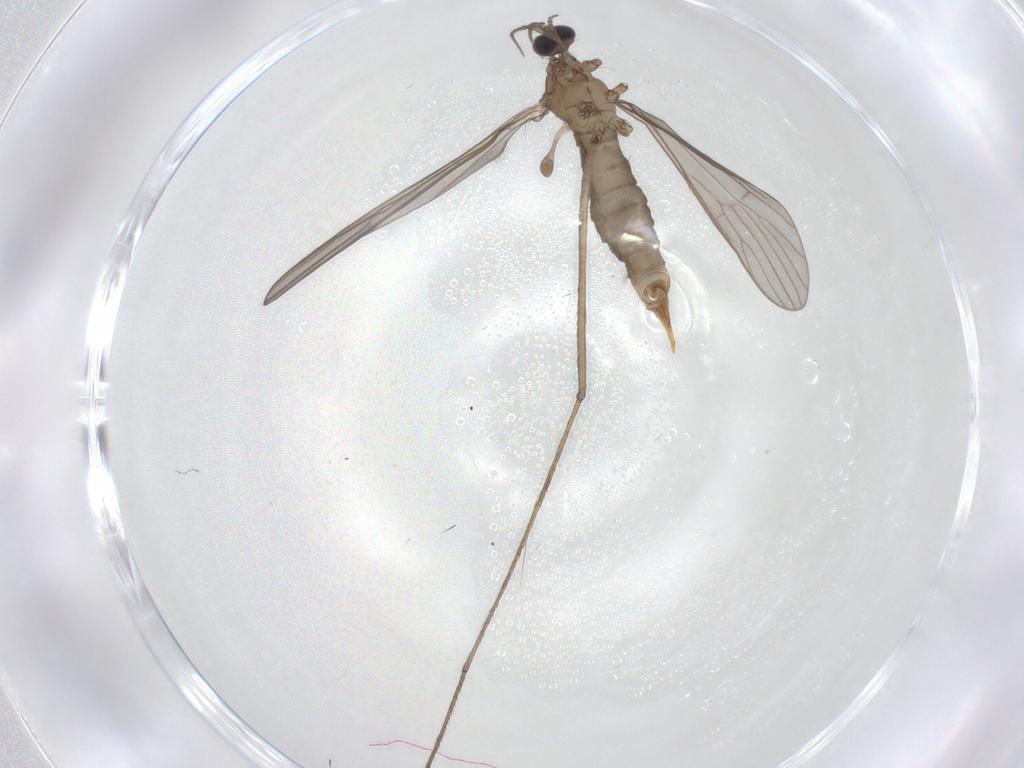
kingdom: Animalia
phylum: Arthropoda
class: Insecta
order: Diptera
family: Limoniidae
